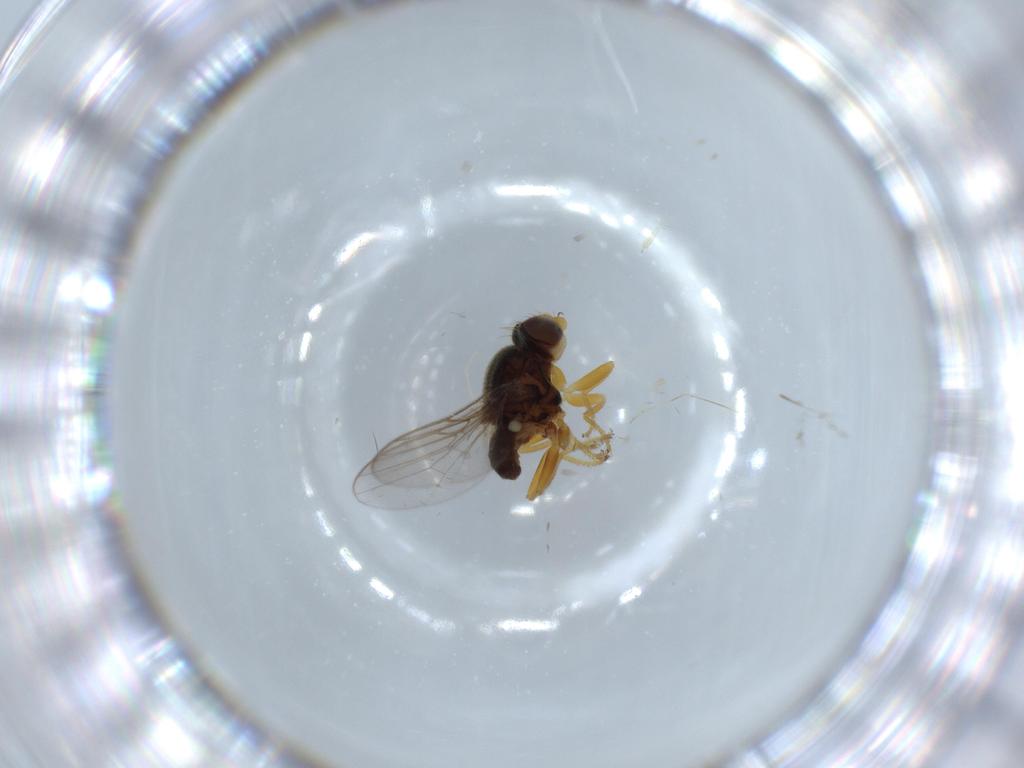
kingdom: Animalia
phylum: Arthropoda
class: Insecta
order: Diptera
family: Chloropidae
